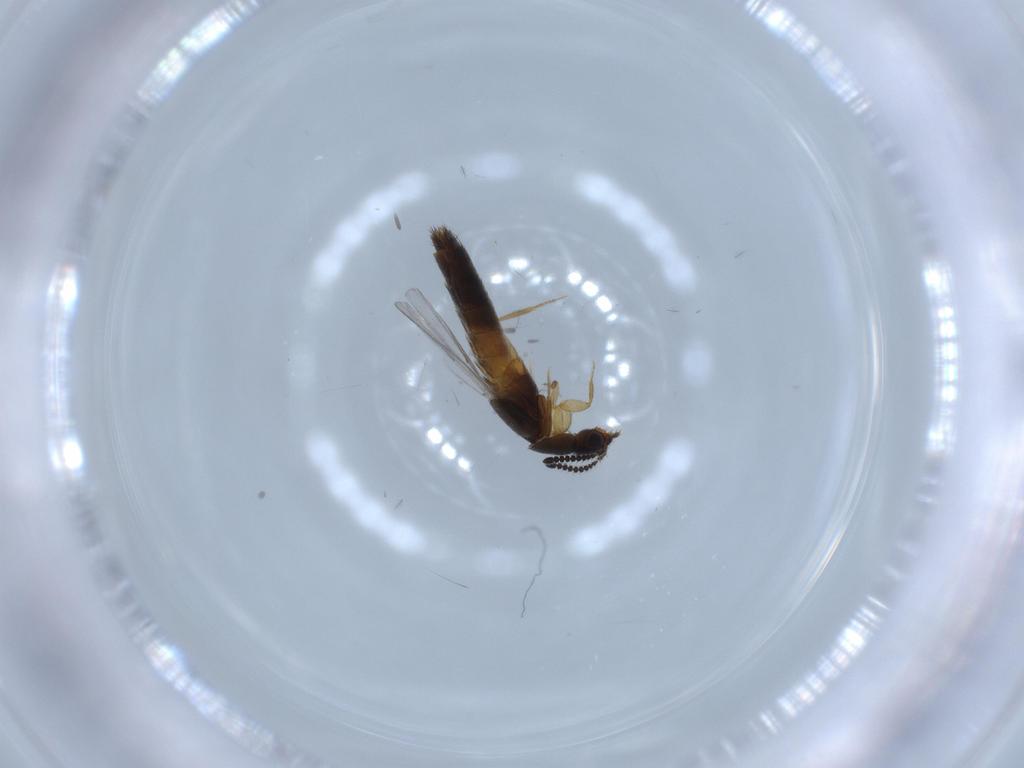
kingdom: Animalia
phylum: Arthropoda
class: Insecta
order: Coleoptera
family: Staphylinidae
